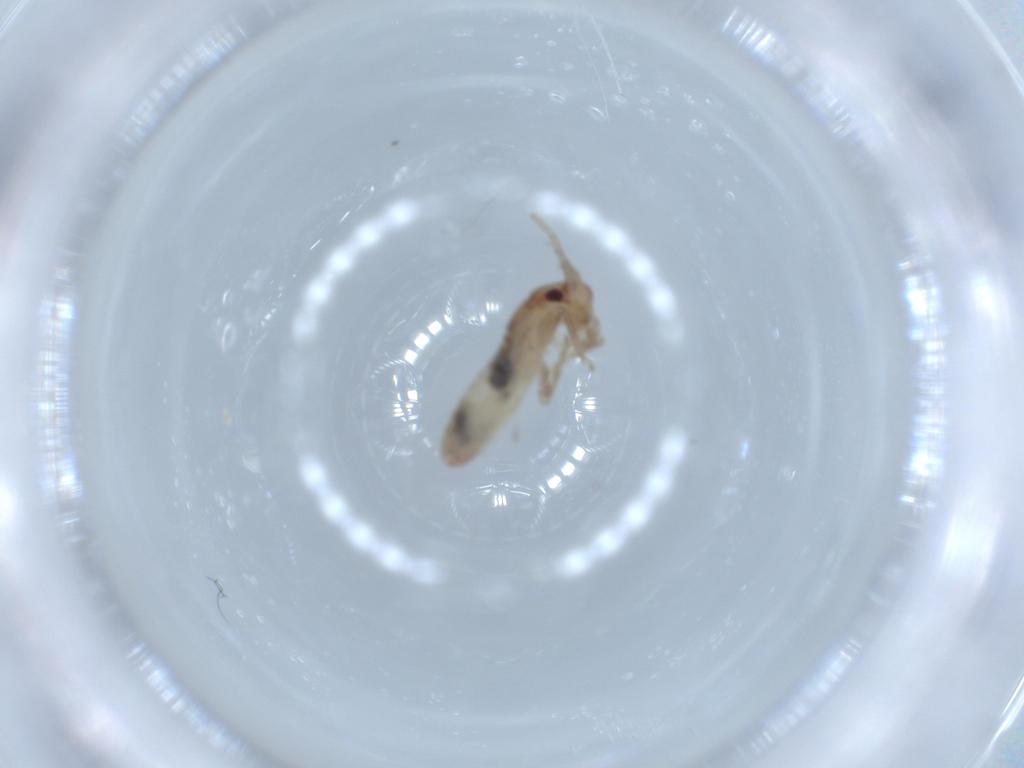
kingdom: Animalia
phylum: Arthropoda
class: Insecta
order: Orthoptera
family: Mogoplistidae
